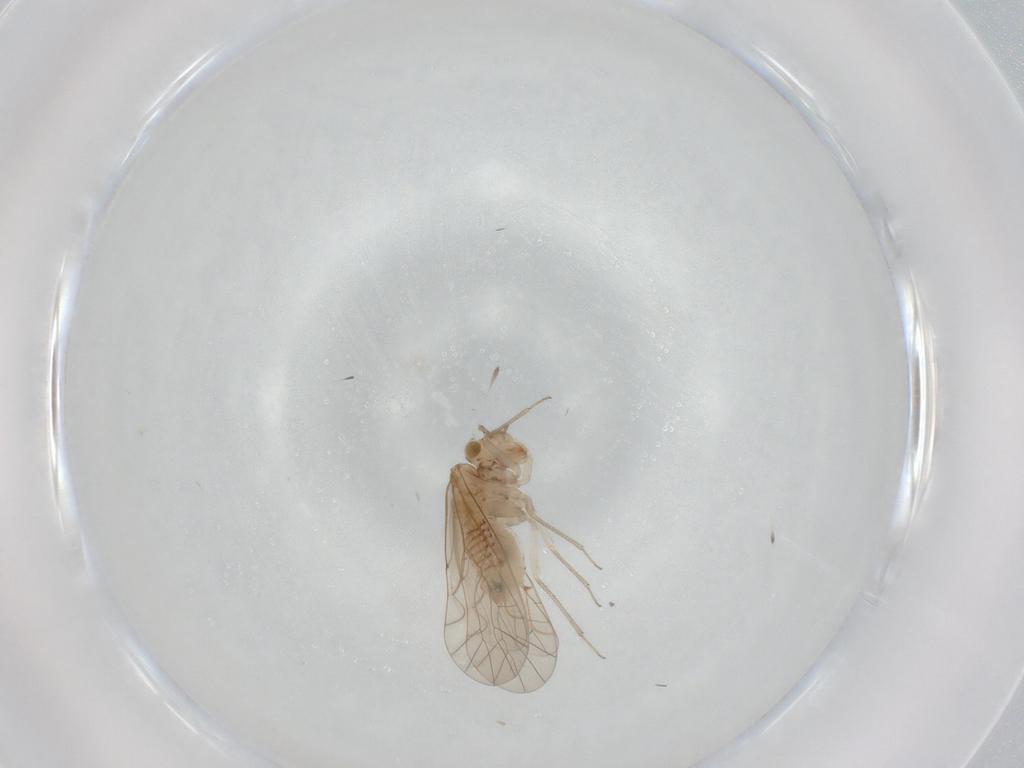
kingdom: Animalia
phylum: Arthropoda
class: Insecta
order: Psocodea
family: Lachesillidae
